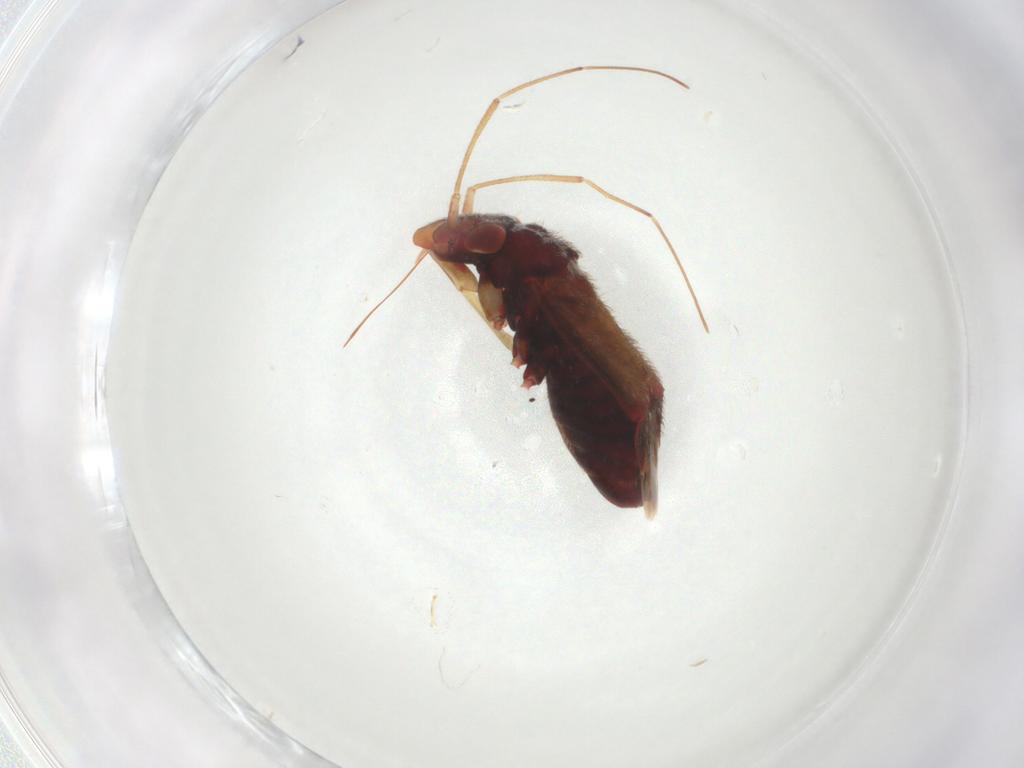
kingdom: Animalia
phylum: Arthropoda
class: Insecta
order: Hemiptera
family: Miridae
